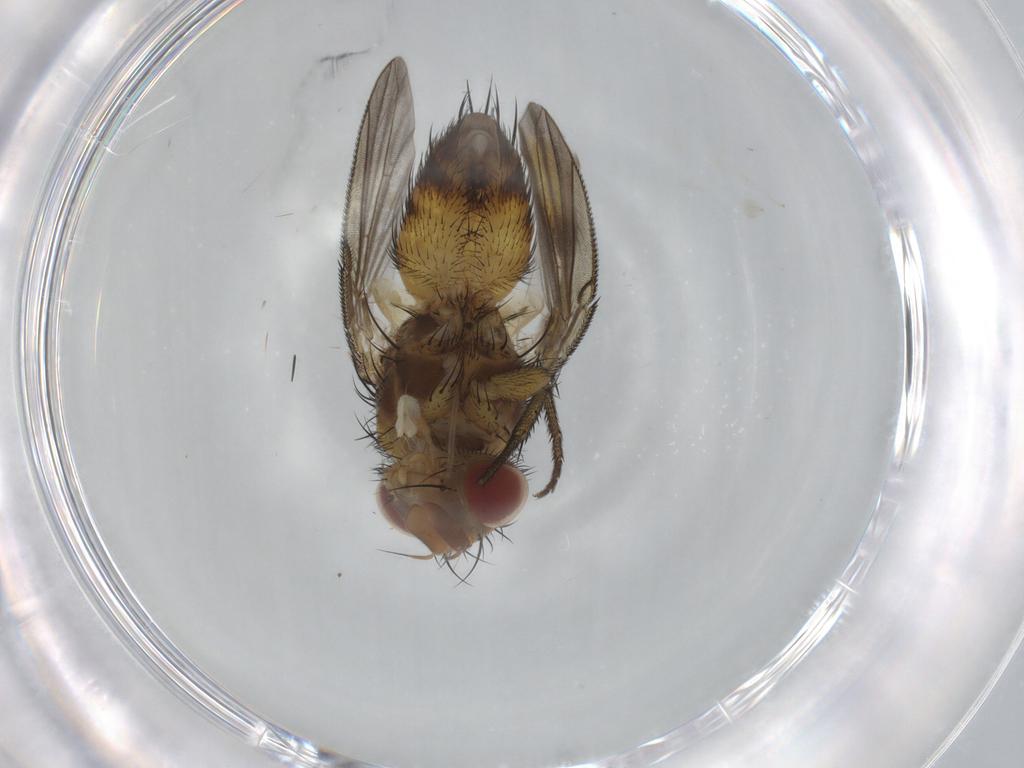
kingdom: Animalia
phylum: Arthropoda
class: Insecta
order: Diptera
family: Tachinidae
